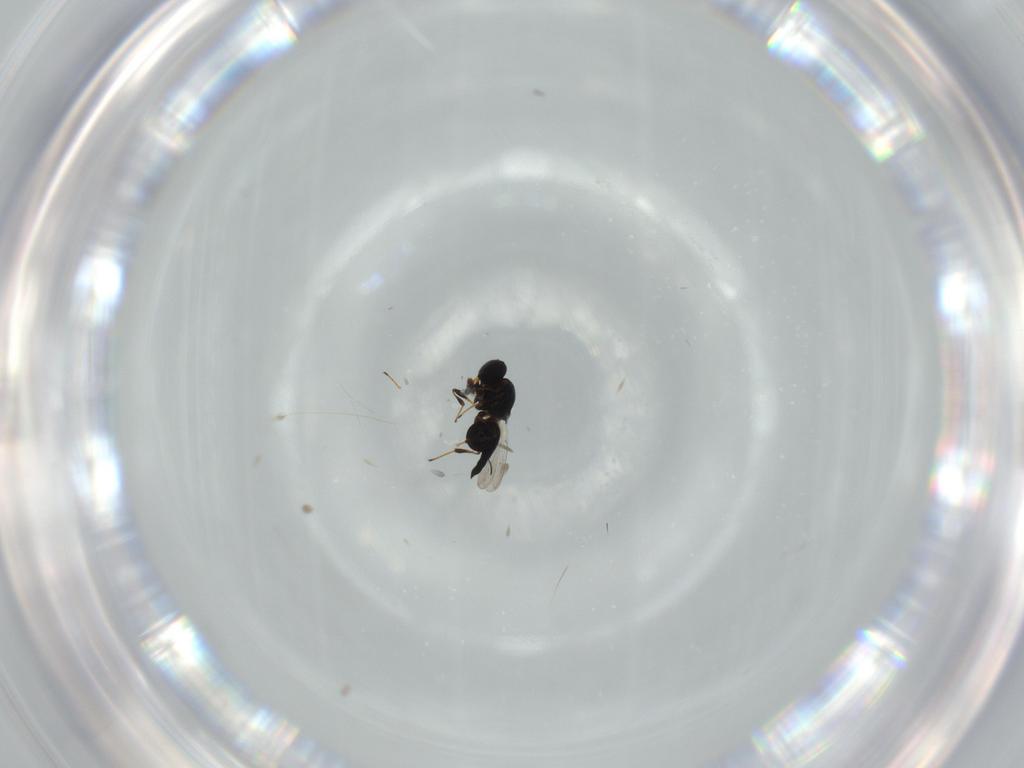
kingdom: Animalia
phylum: Arthropoda
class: Insecta
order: Hymenoptera
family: Platygastridae
